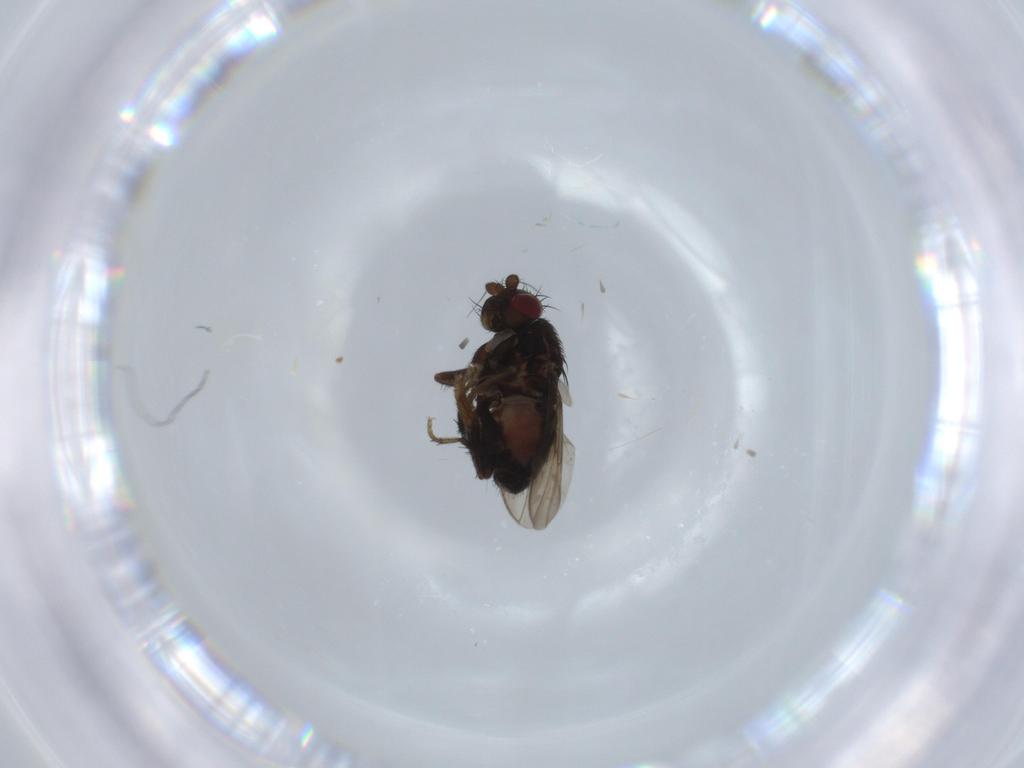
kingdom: Animalia
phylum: Arthropoda
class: Insecta
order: Diptera
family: Sphaeroceridae
